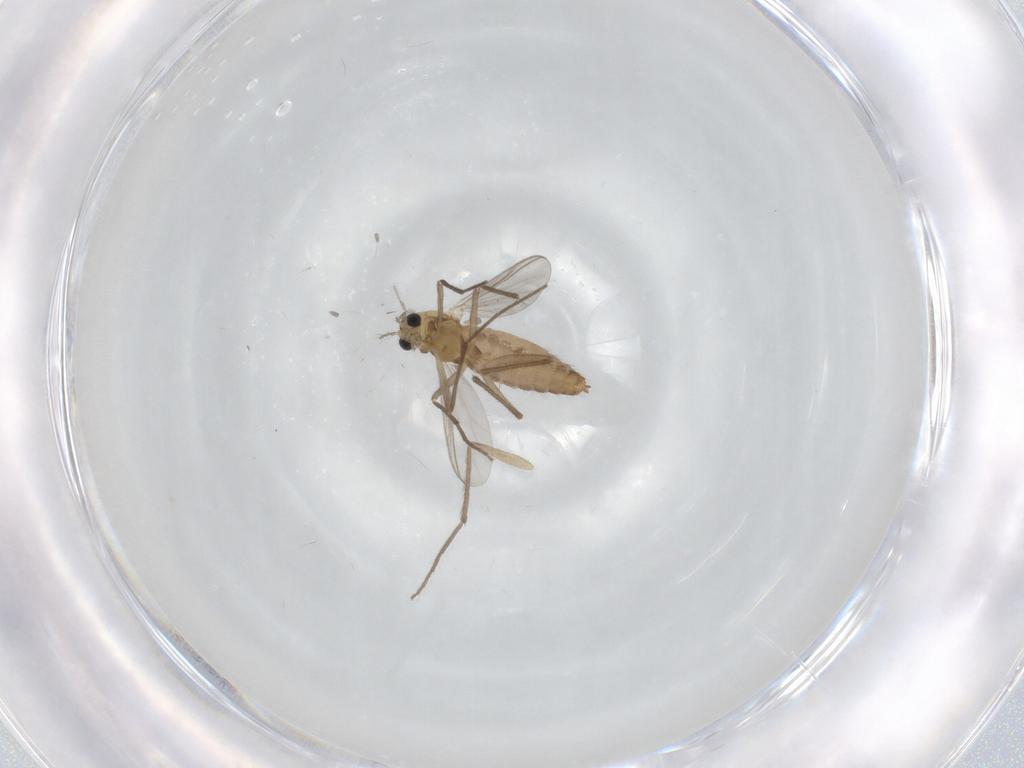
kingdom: Animalia
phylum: Arthropoda
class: Insecta
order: Diptera
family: Chironomidae
